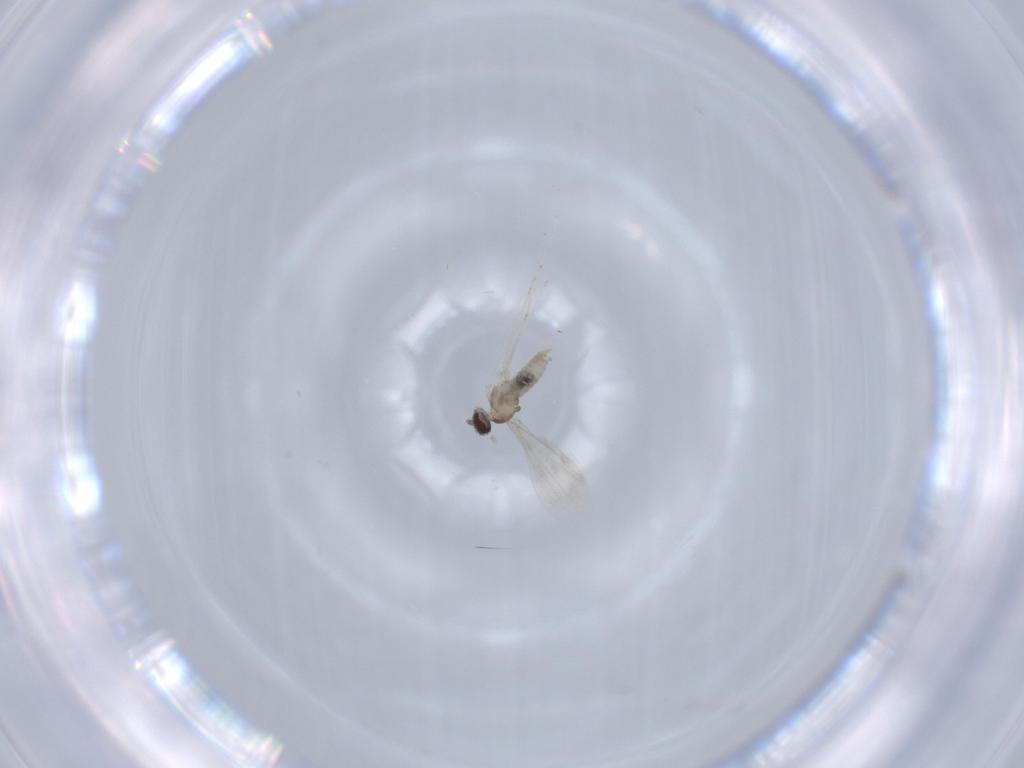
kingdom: Animalia
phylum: Arthropoda
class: Insecta
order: Diptera
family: Cecidomyiidae
